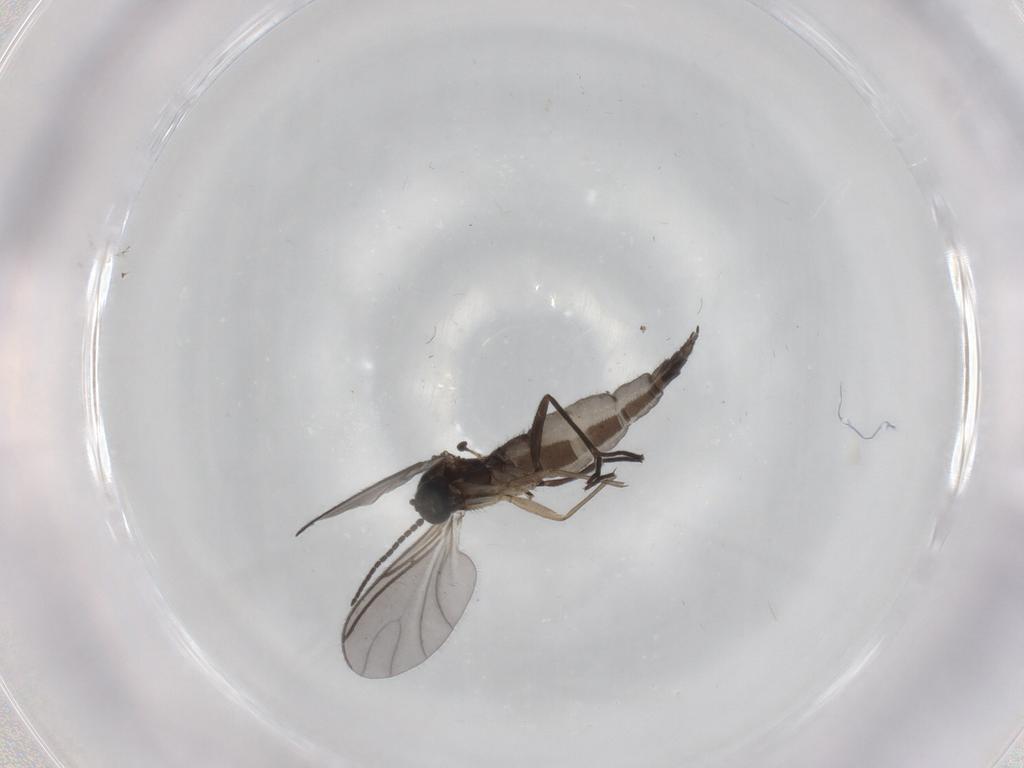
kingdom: Animalia
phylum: Arthropoda
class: Insecta
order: Diptera
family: Sciaridae
